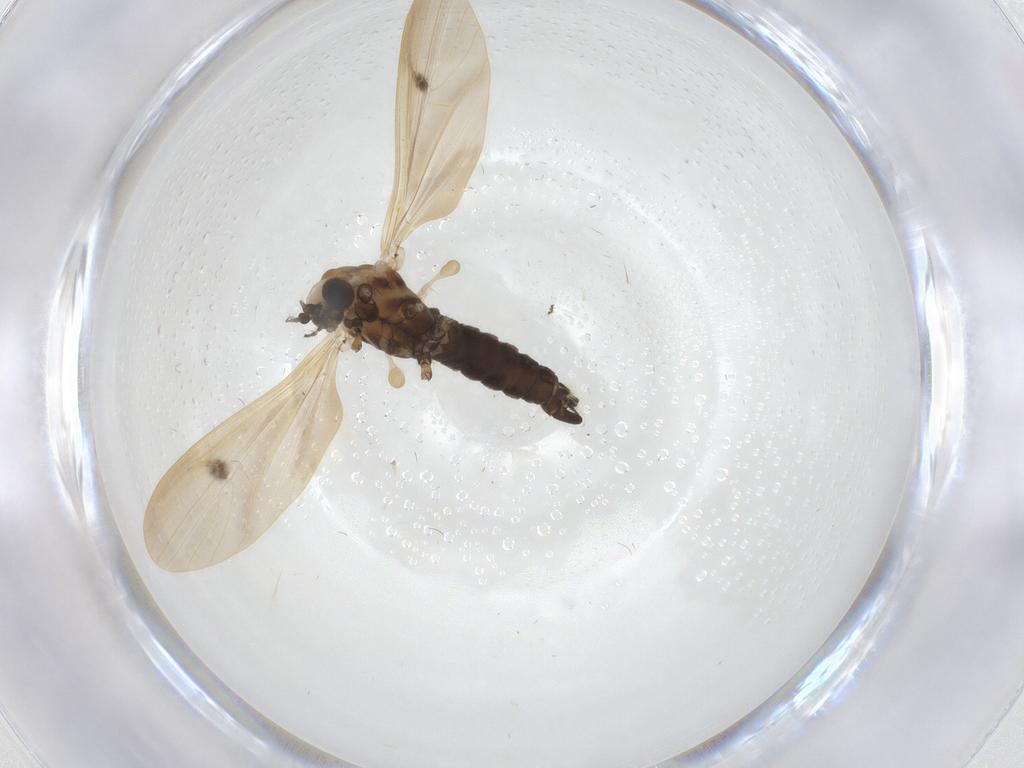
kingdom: Animalia
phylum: Arthropoda
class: Insecta
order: Diptera
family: Limoniidae
